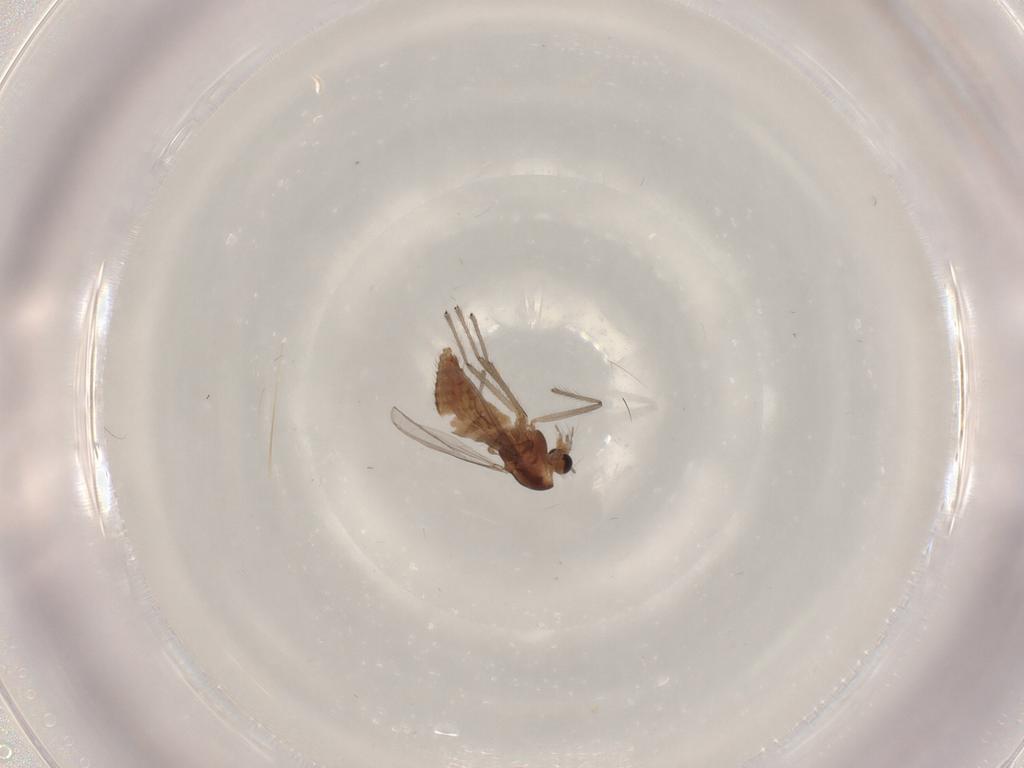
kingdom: Animalia
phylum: Arthropoda
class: Insecta
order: Diptera
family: Chironomidae
